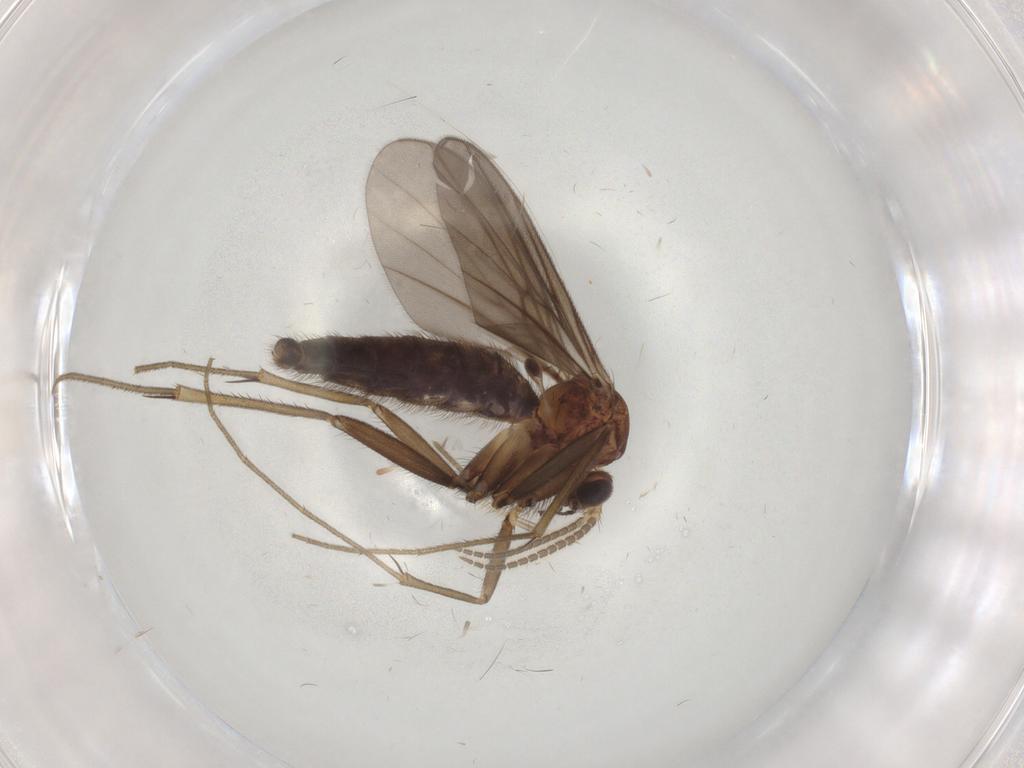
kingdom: Animalia
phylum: Arthropoda
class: Insecta
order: Diptera
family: Mycetophilidae
